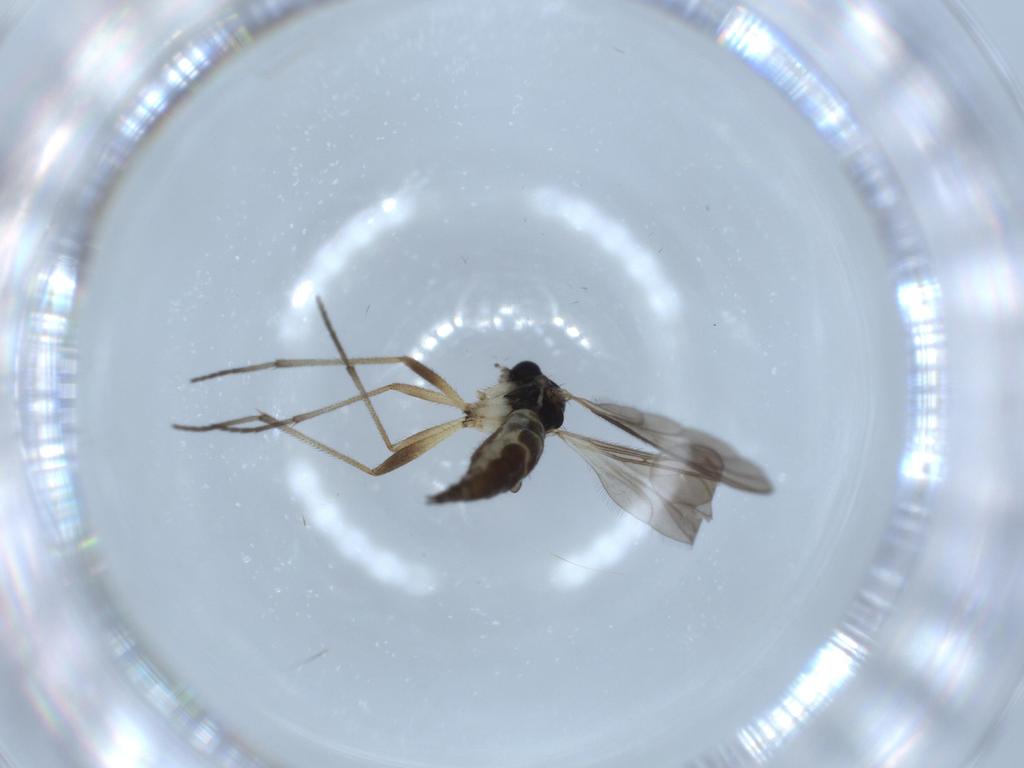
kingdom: Animalia
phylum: Arthropoda
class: Insecta
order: Diptera
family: Sciaridae
